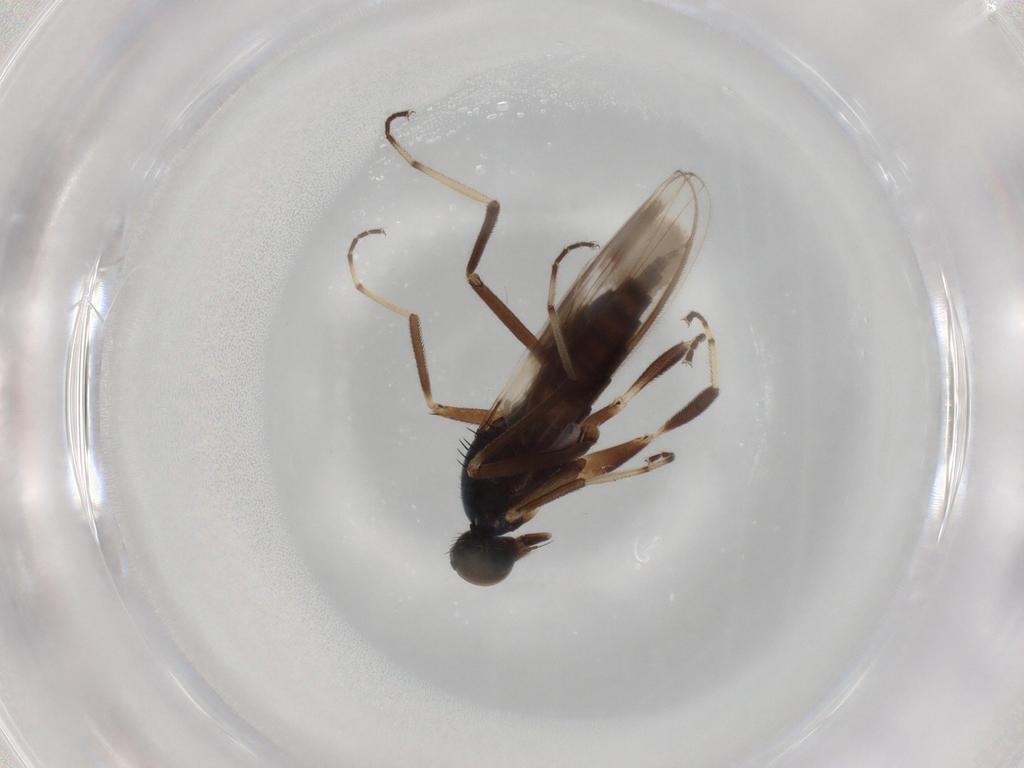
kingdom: Animalia
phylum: Arthropoda
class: Insecta
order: Diptera
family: Hybotidae
